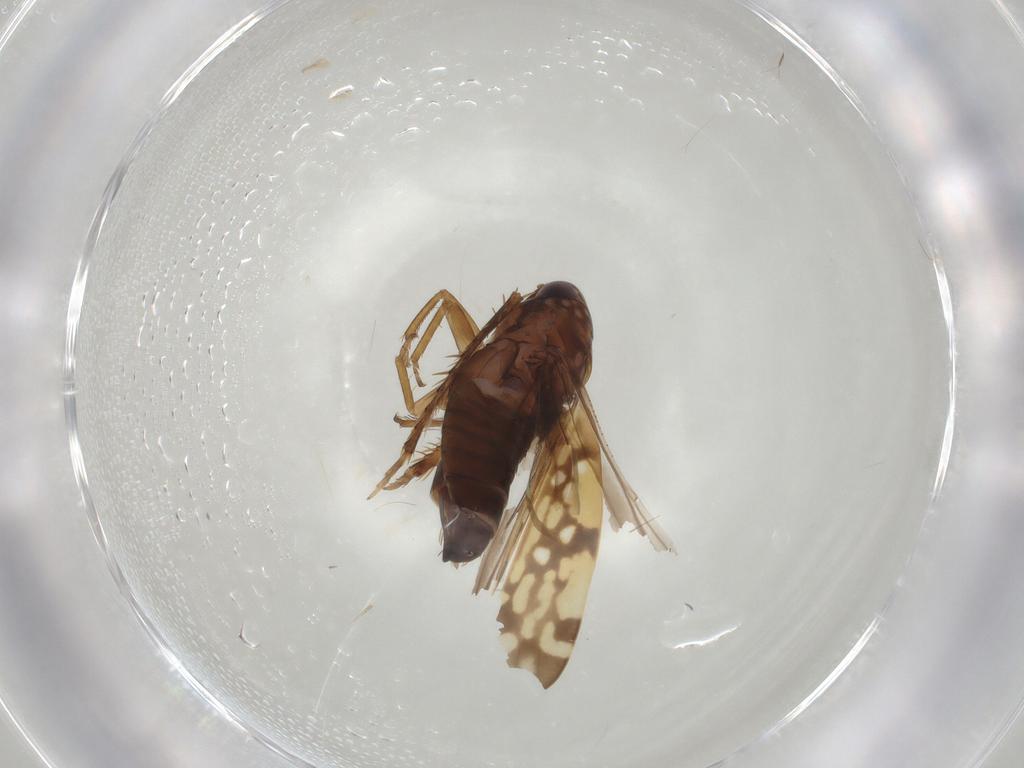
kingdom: Animalia
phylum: Arthropoda
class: Insecta
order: Hemiptera
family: Cicadellidae
